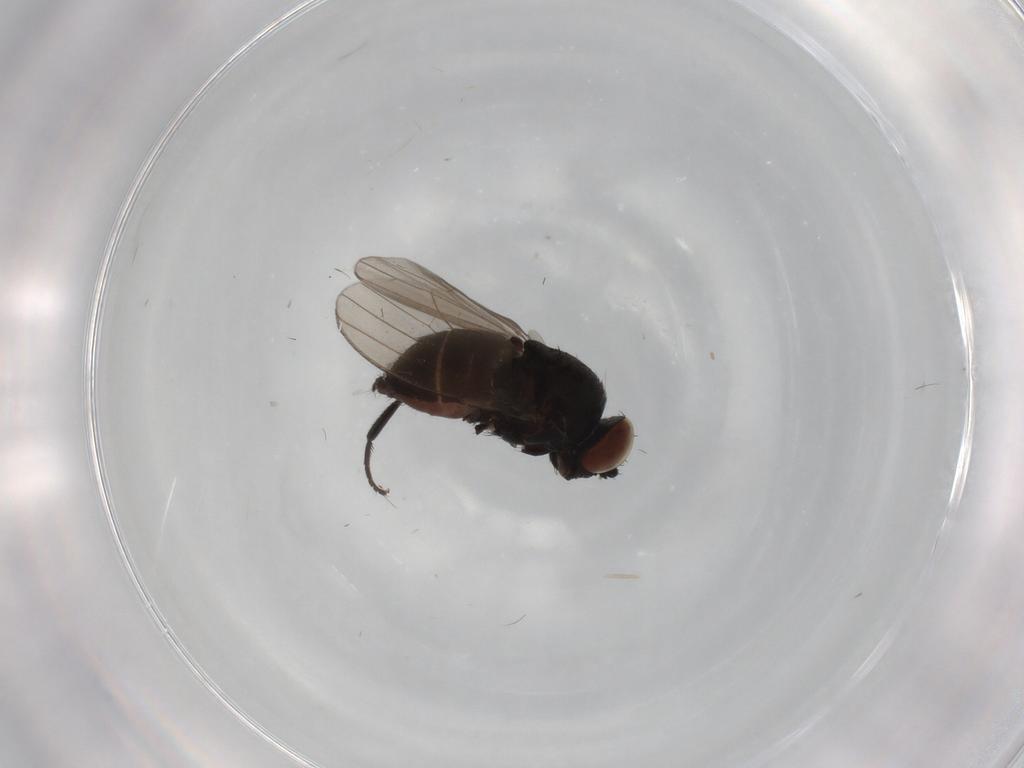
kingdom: Animalia
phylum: Arthropoda
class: Insecta
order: Diptera
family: Milichiidae
